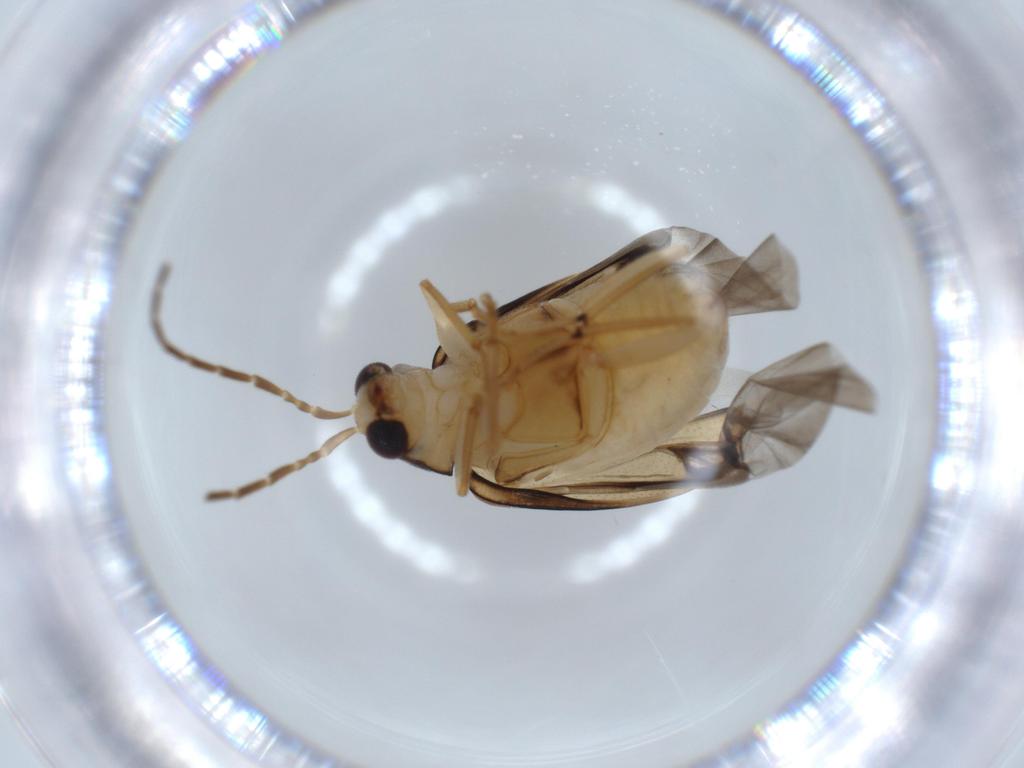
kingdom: Animalia
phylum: Arthropoda
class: Insecta
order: Coleoptera
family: Chrysomelidae
